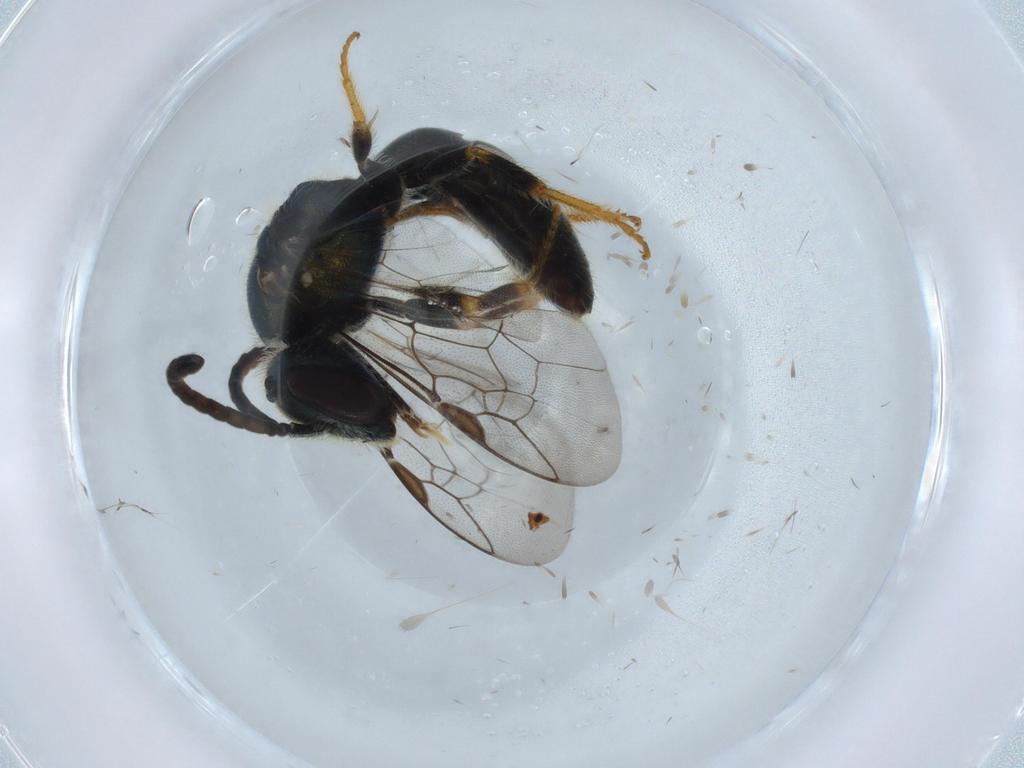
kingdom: Animalia
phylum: Arthropoda
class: Insecta
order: Hymenoptera
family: Halictidae
